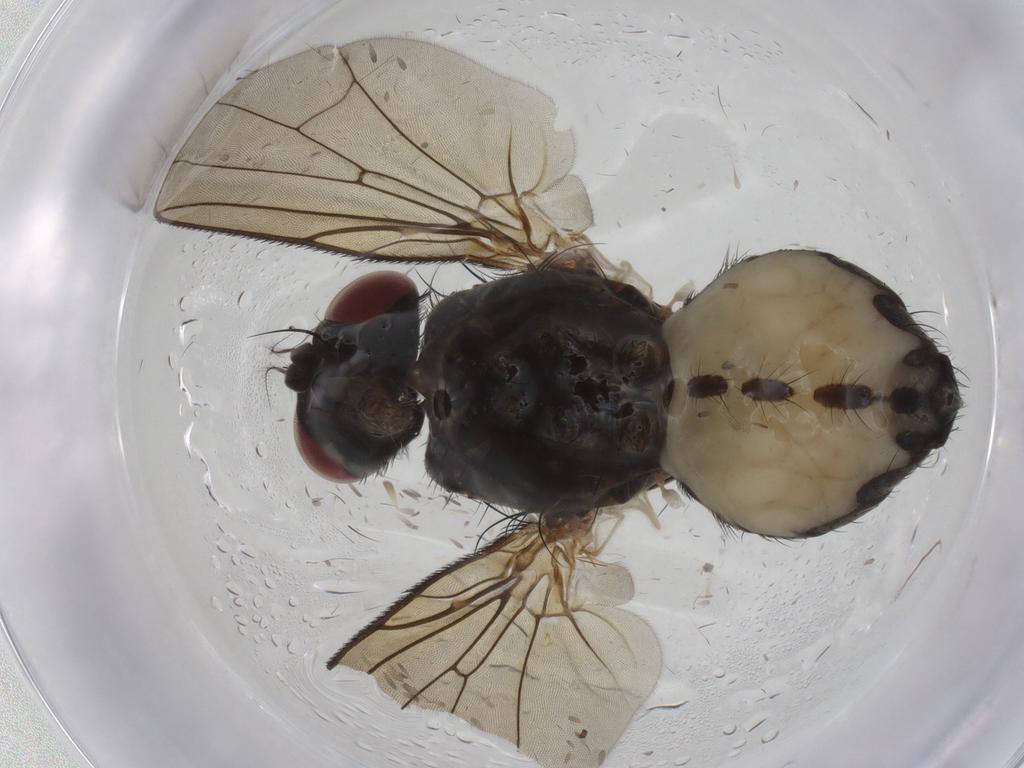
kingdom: Animalia
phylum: Arthropoda
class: Insecta
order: Diptera
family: Anthomyiidae
